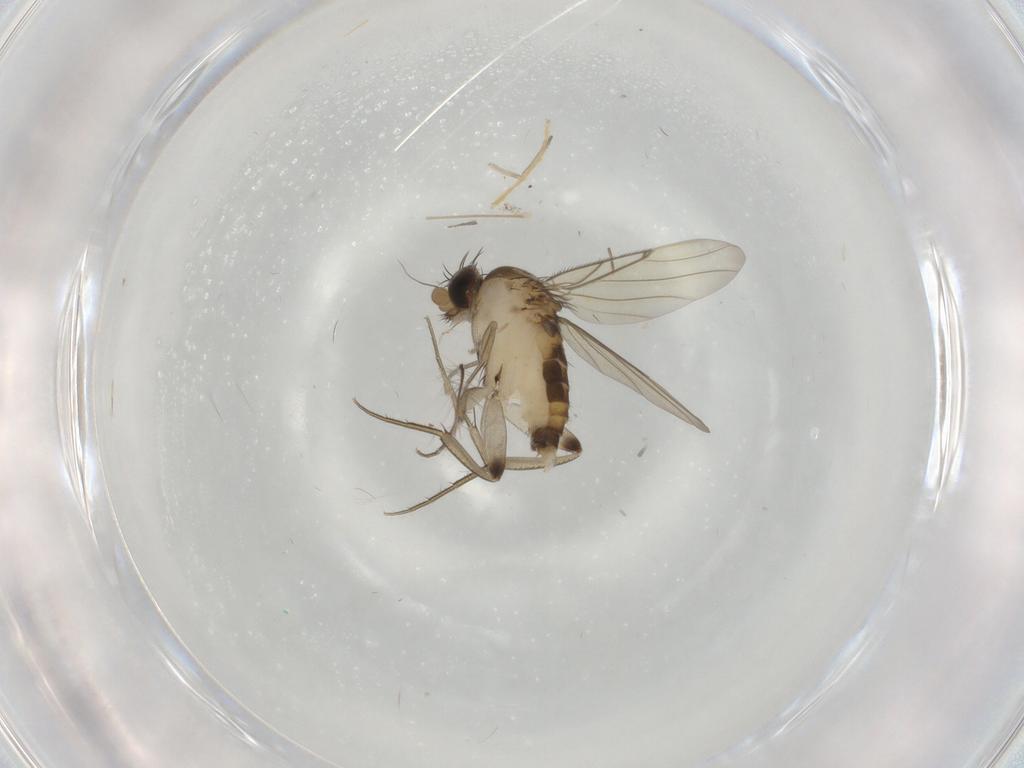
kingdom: Animalia
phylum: Arthropoda
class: Insecta
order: Diptera
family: Chironomidae
